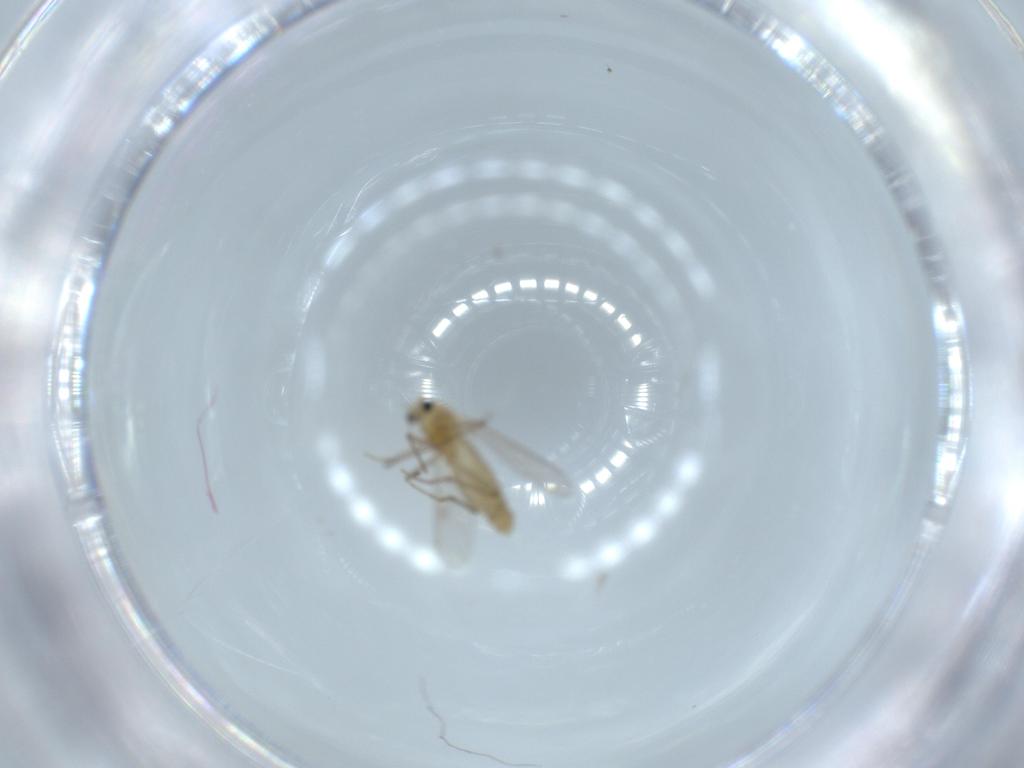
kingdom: Animalia
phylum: Arthropoda
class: Insecta
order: Diptera
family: Chironomidae
